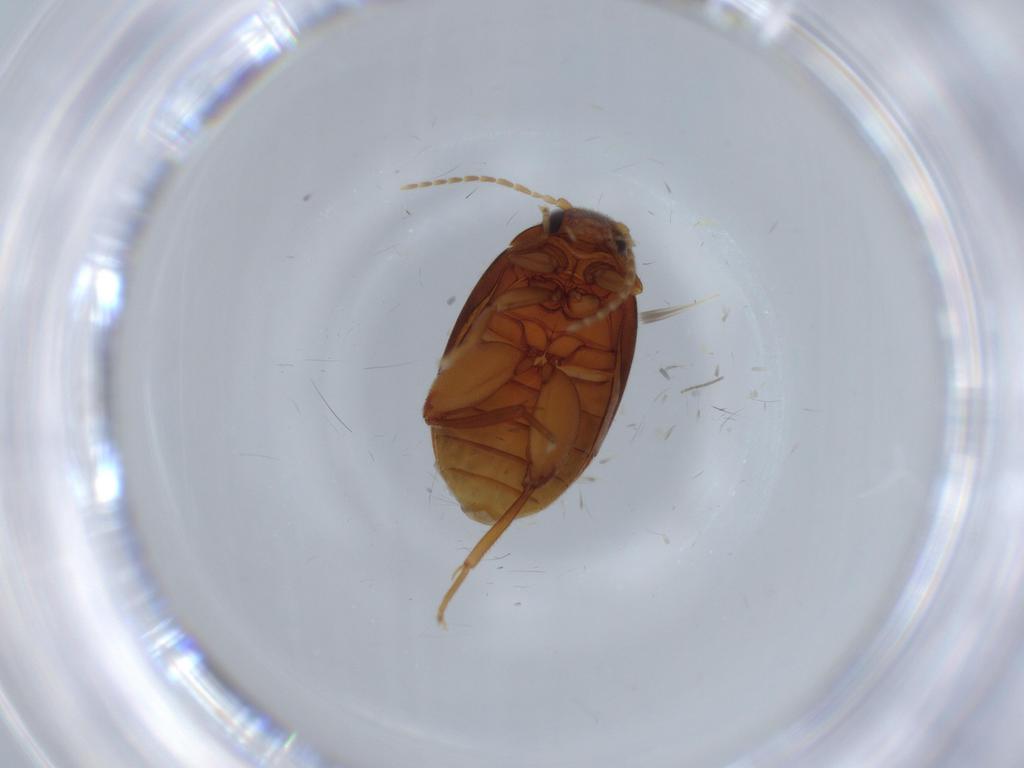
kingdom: Animalia
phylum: Arthropoda
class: Insecta
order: Coleoptera
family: Scirtidae
